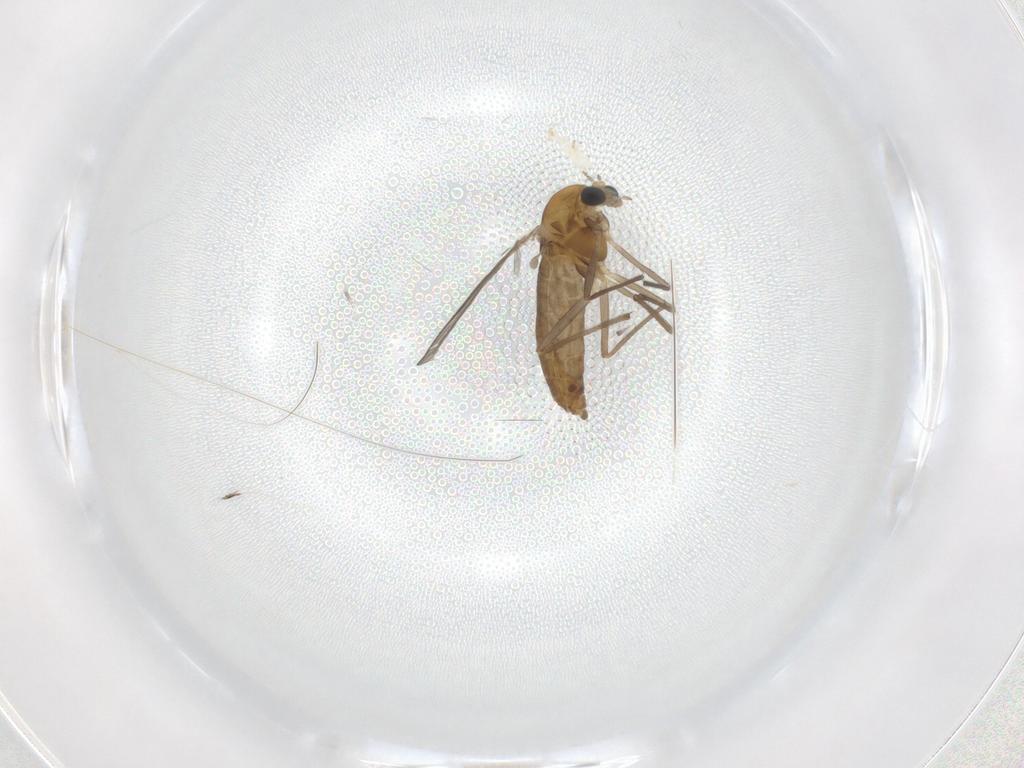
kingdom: Animalia
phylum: Arthropoda
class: Insecta
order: Diptera
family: Chironomidae
